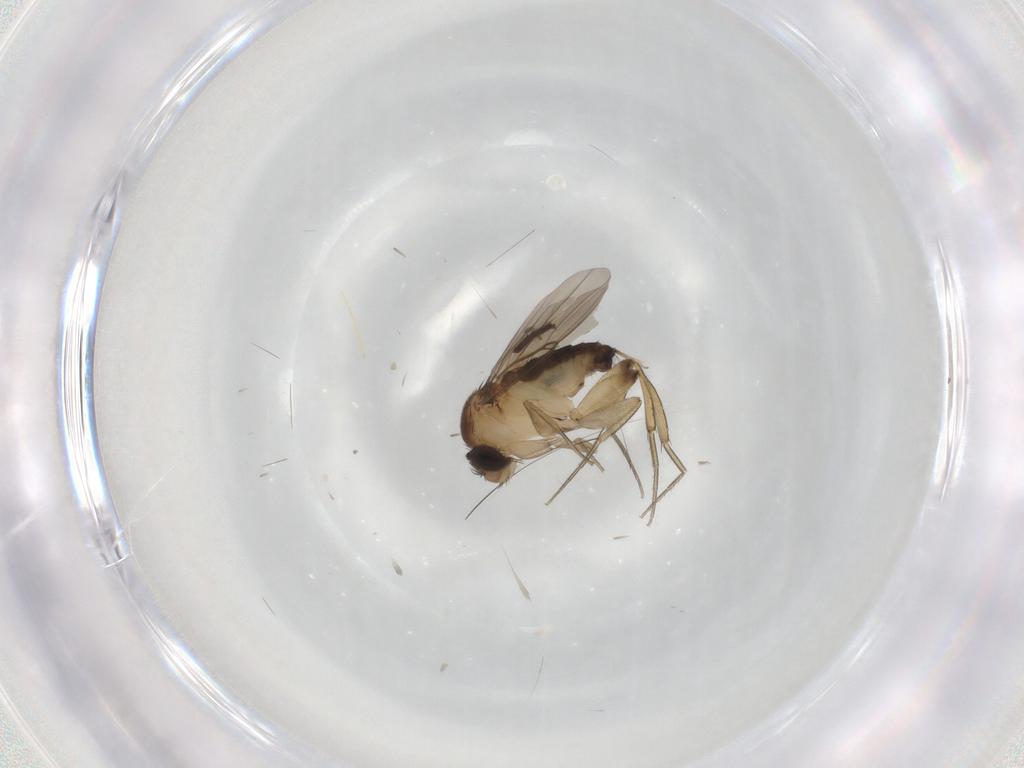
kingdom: Animalia
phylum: Arthropoda
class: Insecta
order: Diptera
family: Phoridae
